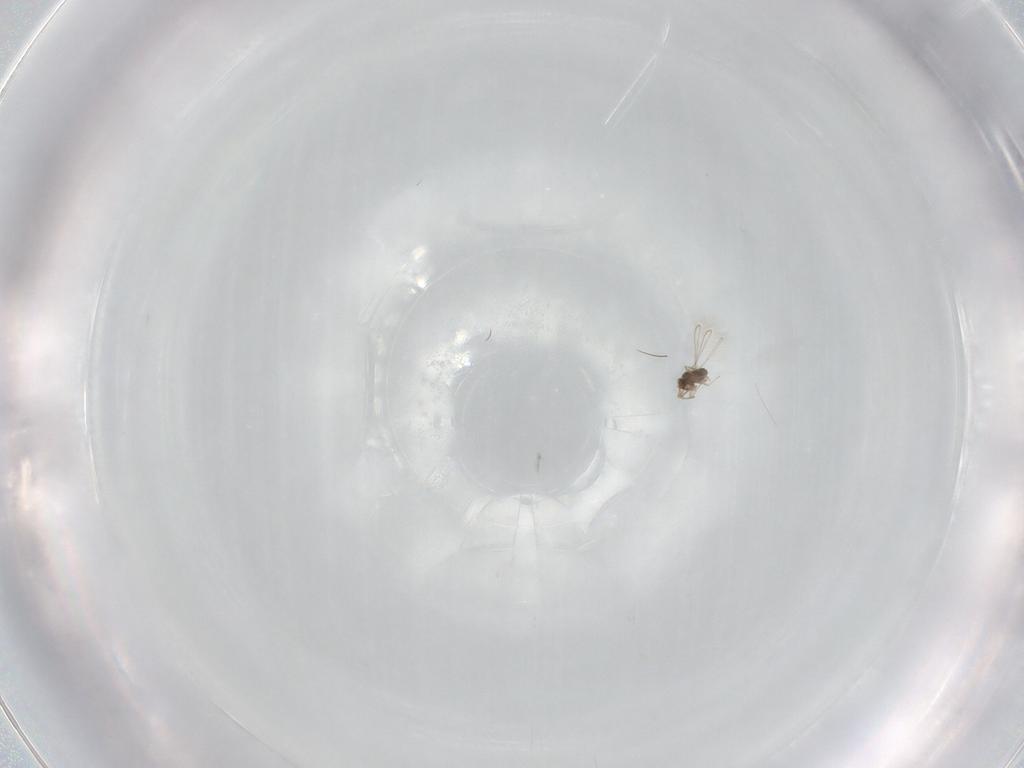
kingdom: Animalia
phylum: Arthropoda
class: Insecta
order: Hymenoptera
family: Mymaridae
